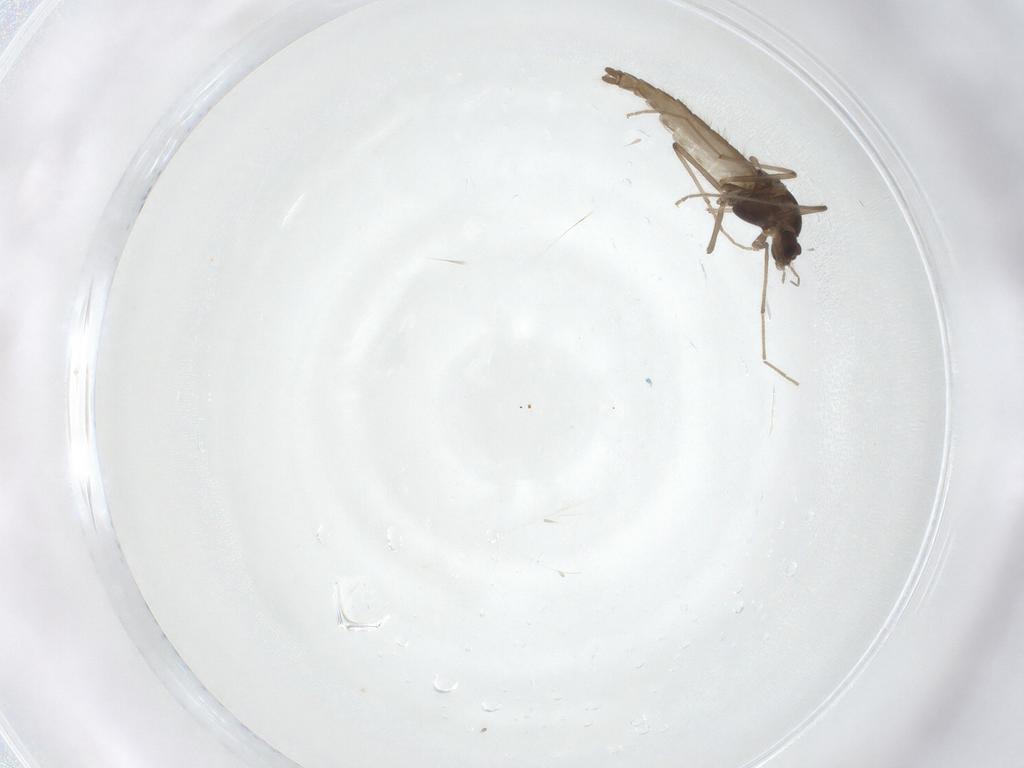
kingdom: Animalia
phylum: Arthropoda
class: Insecta
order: Diptera
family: Chironomidae
